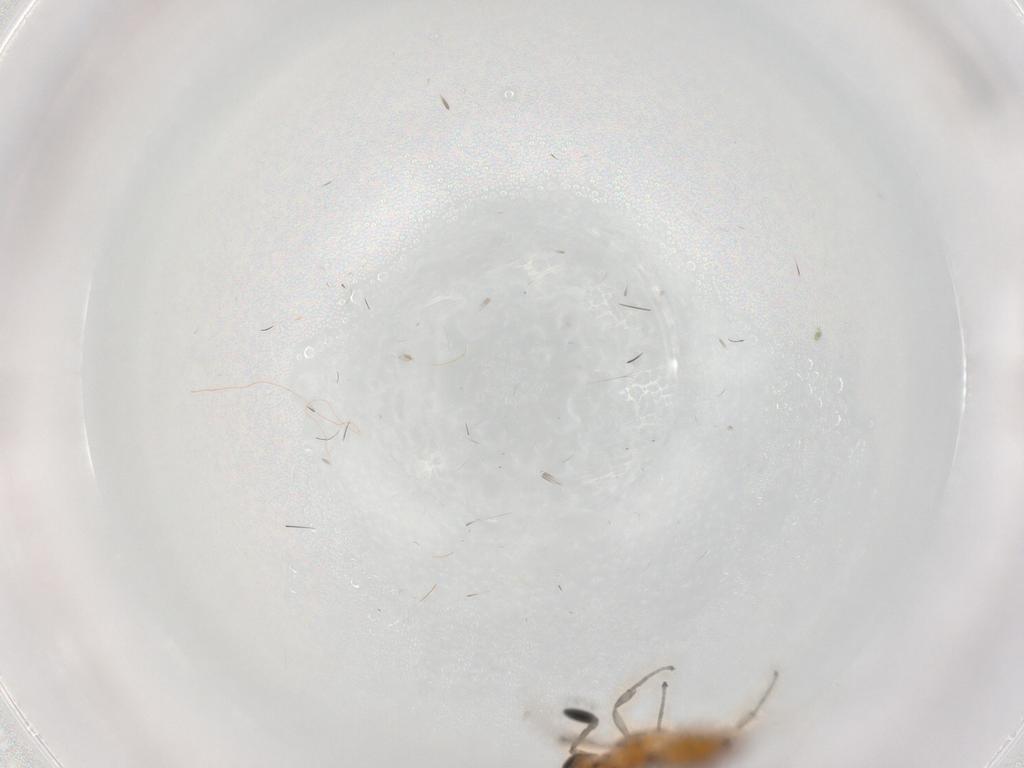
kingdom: Animalia
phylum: Arthropoda
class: Insecta
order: Hymenoptera
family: Scelionidae
